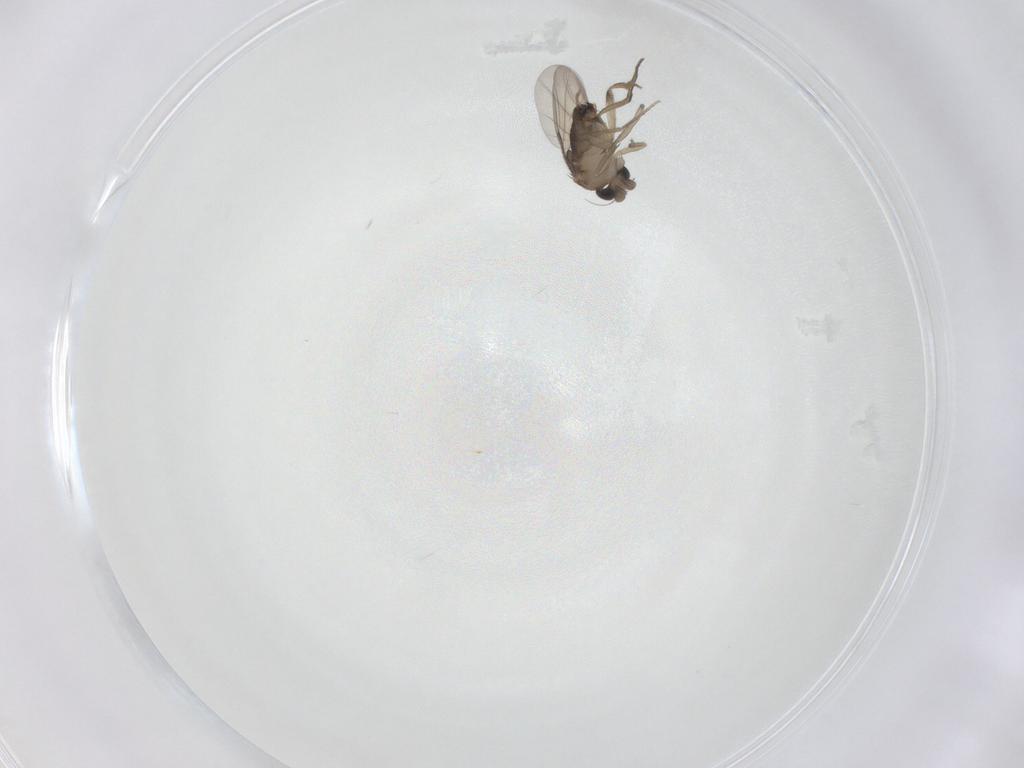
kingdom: Animalia
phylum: Arthropoda
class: Insecta
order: Diptera
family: Phoridae
